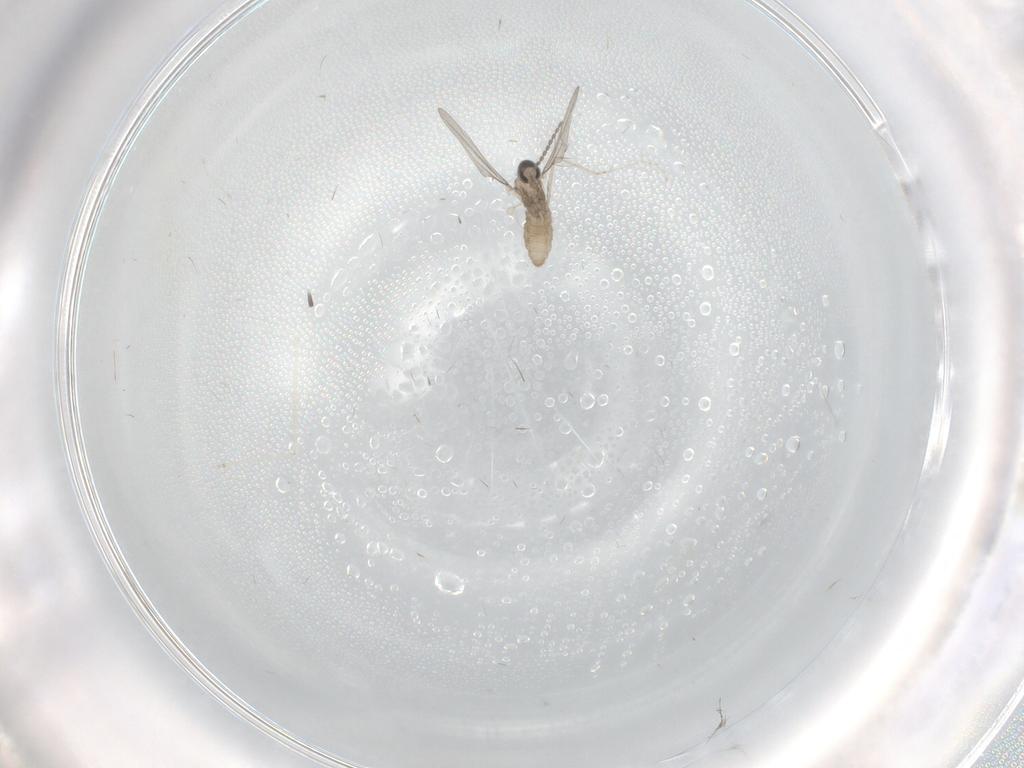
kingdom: Animalia
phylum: Arthropoda
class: Insecta
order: Diptera
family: Cecidomyiidae
